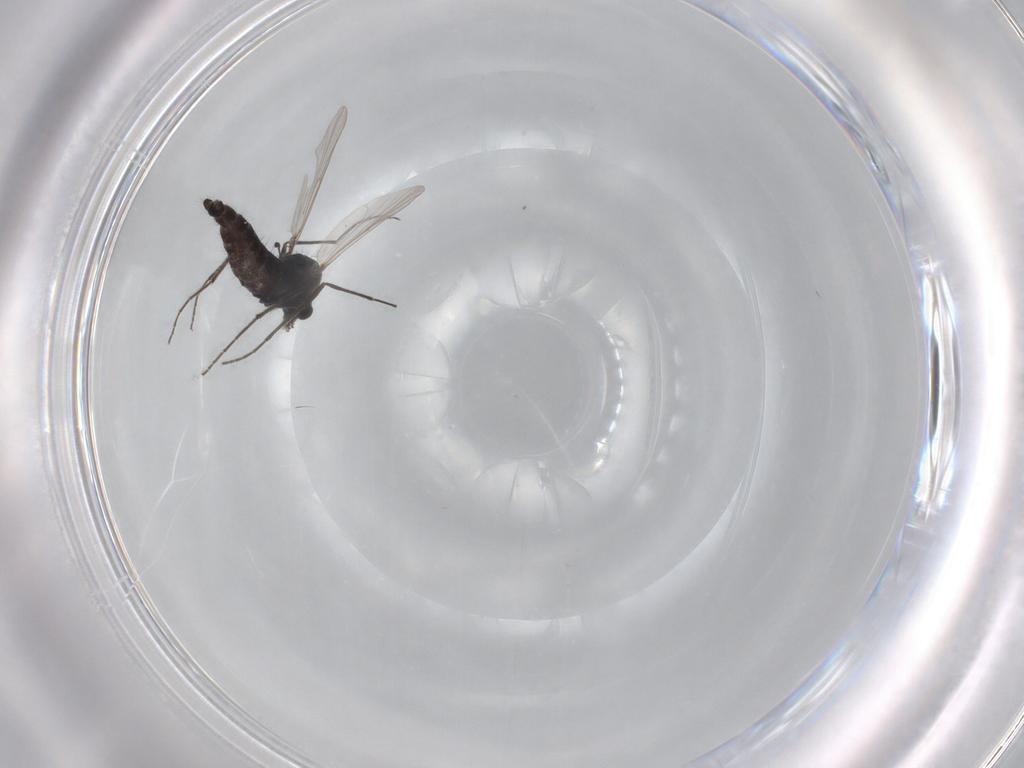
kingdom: Animalia
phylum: Arthropoda
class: Insecta
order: Diptera
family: Chironomidae
